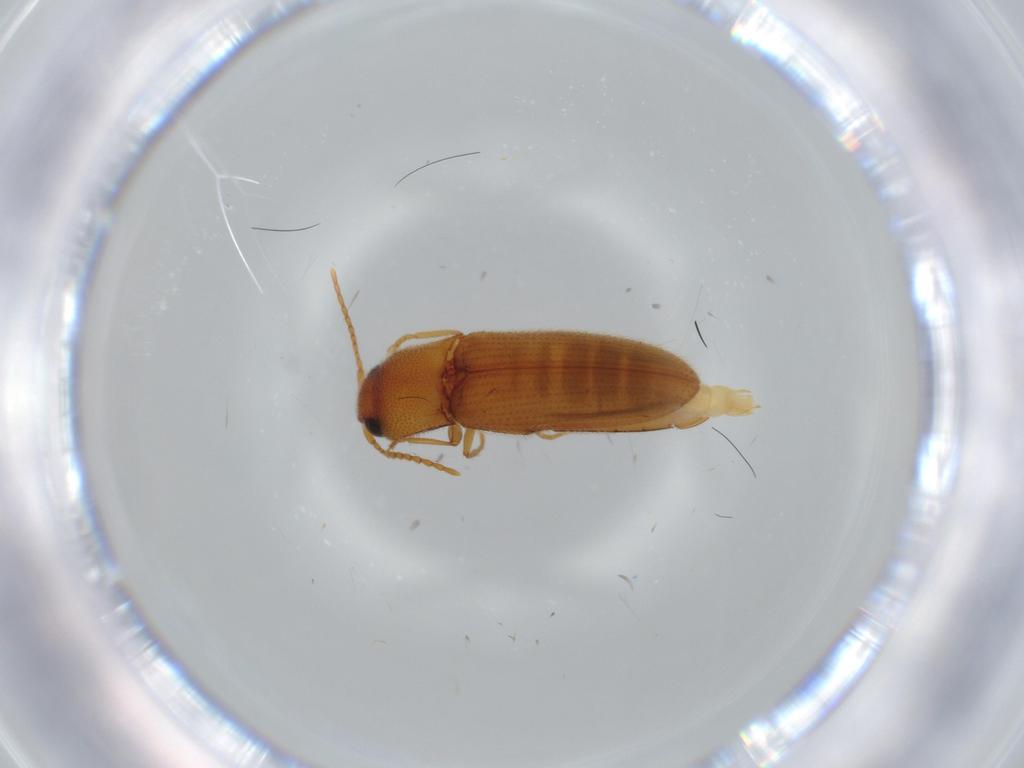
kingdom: Animalia
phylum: Arthropoda
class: Insecta
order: Coleoptera
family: Elateridae
